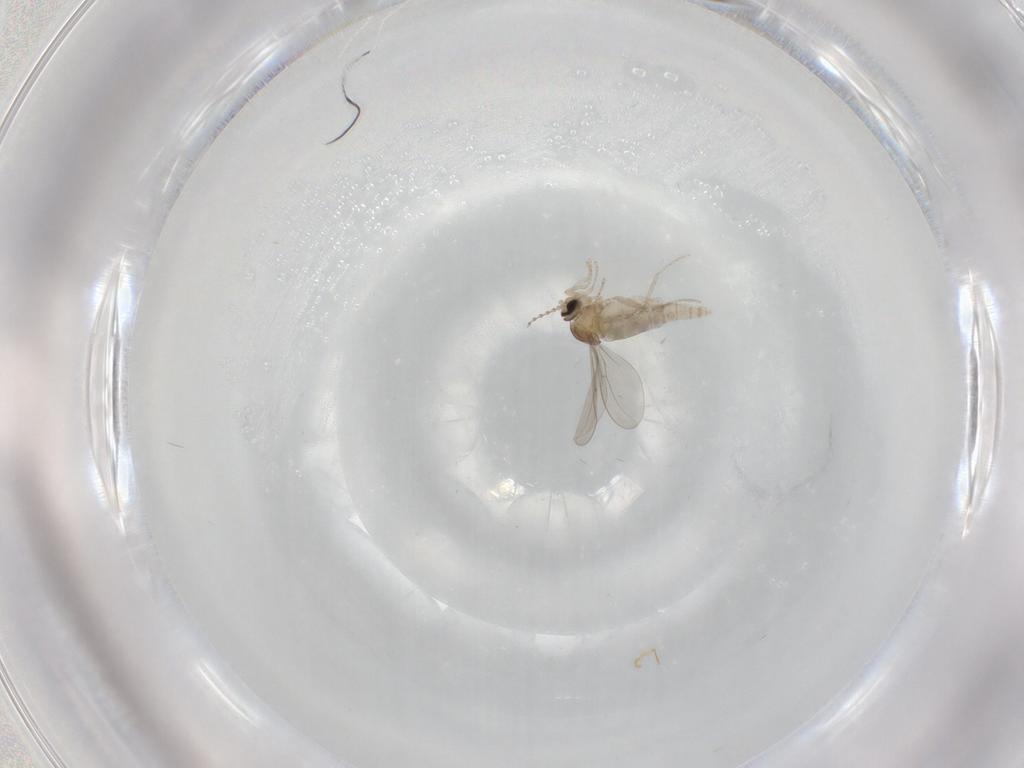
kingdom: Animalia
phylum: Arthropoda
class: Insecta
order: Diptera
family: Cecidomyiidae
